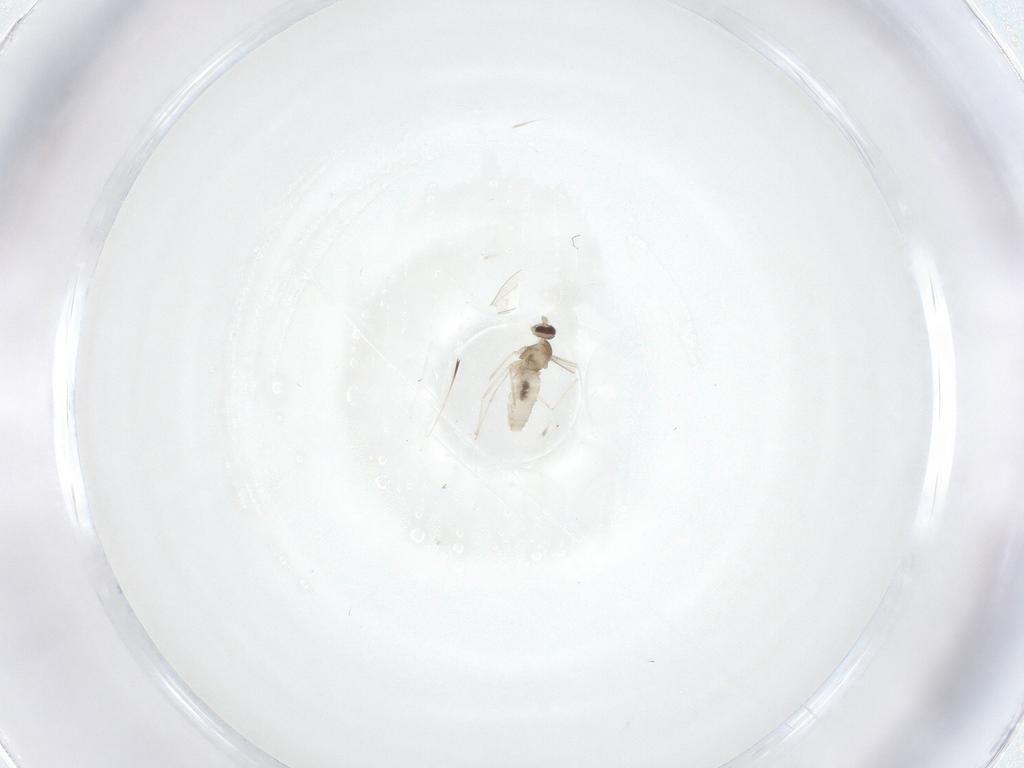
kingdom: Animalia
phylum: Arthropoda
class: Insecta
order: Diptera
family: Cecidomyiidae
